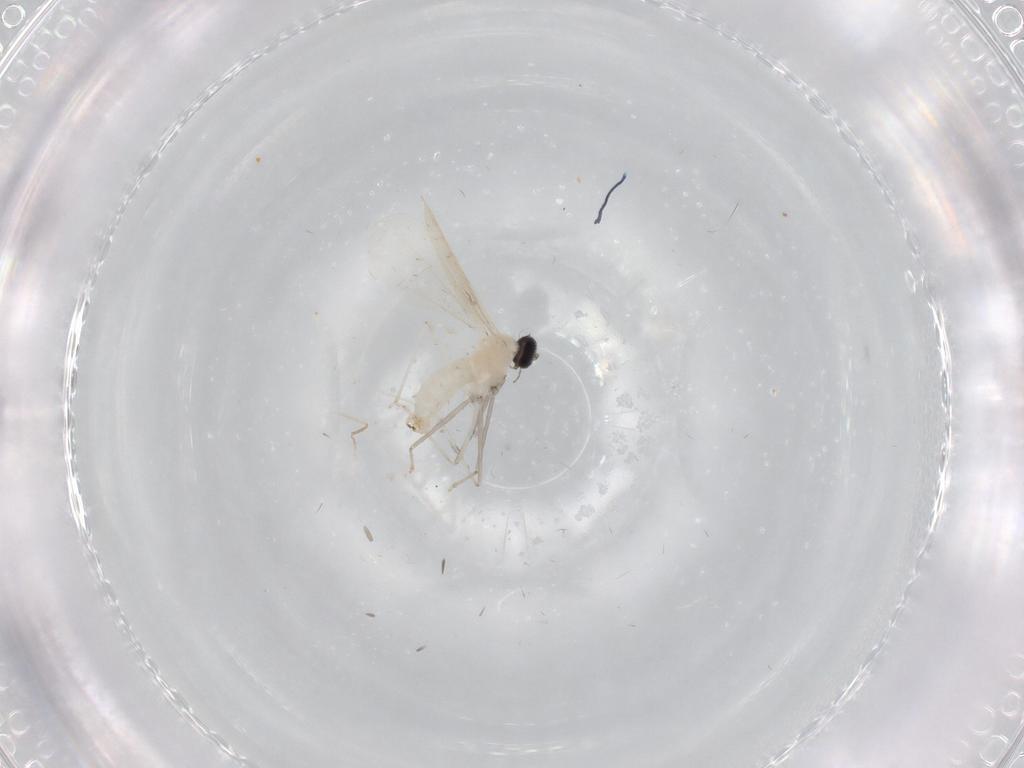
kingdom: Animalia
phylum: Arthropoda
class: Insecta
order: Diptera
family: Cecidomyiidae
